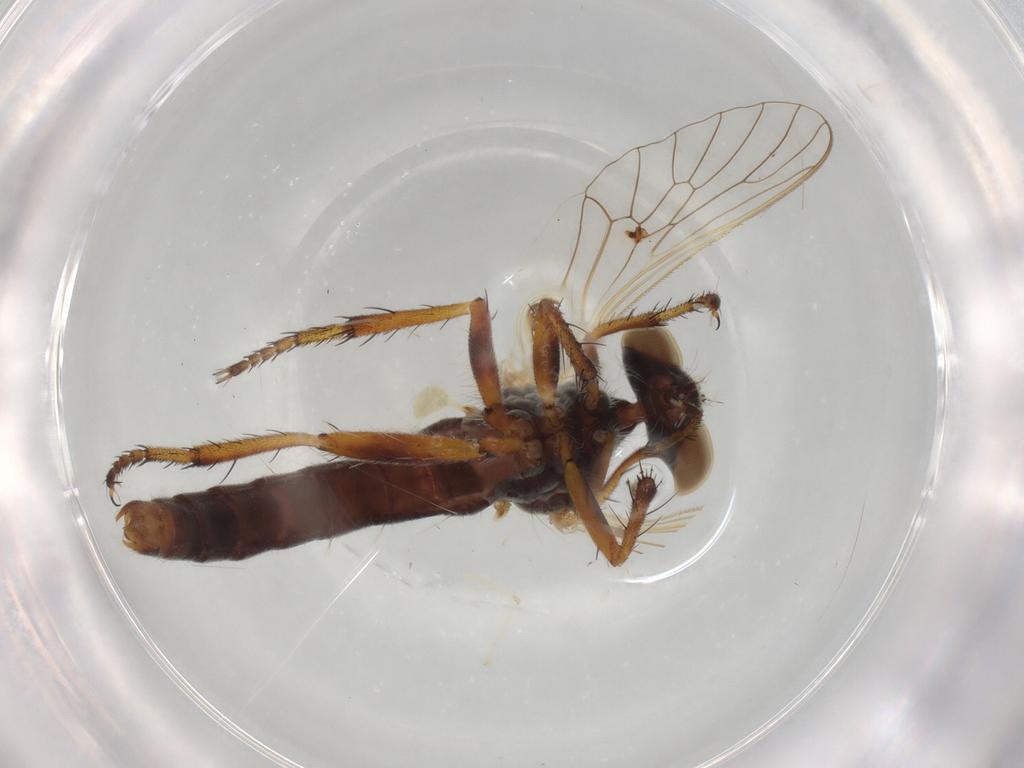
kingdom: Animalia
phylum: Arthropoda
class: Insecta
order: Diptera
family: Asilidae
